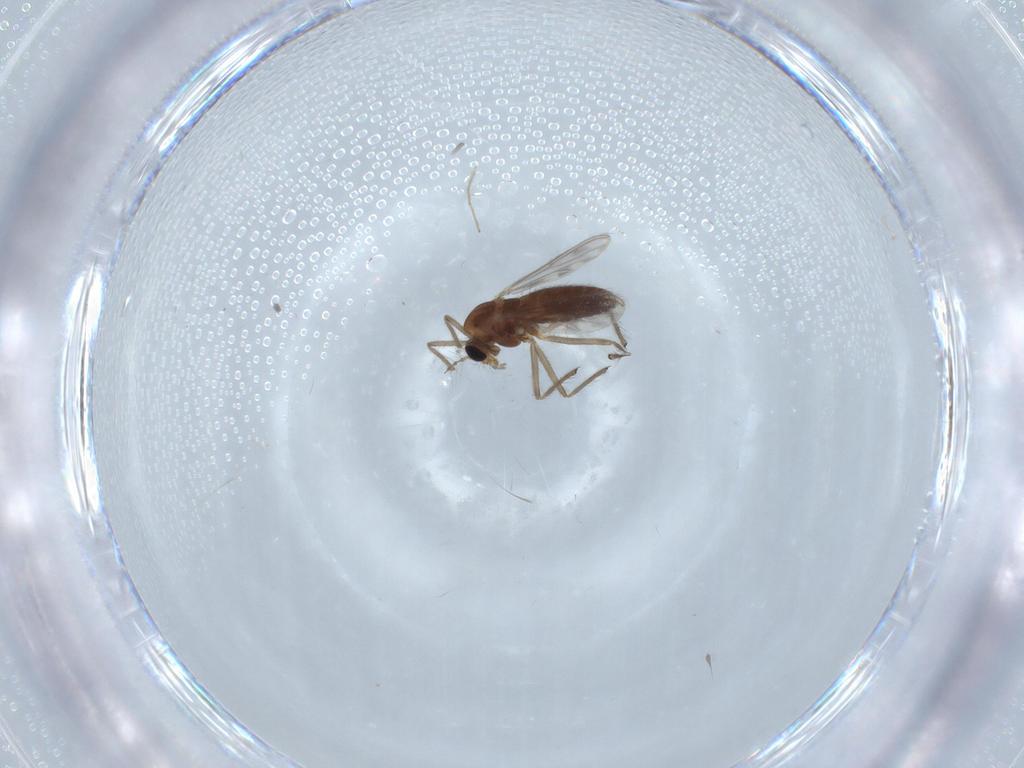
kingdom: Animalia
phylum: Arthropoda
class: Insecta
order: Diptera
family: Phoridae
